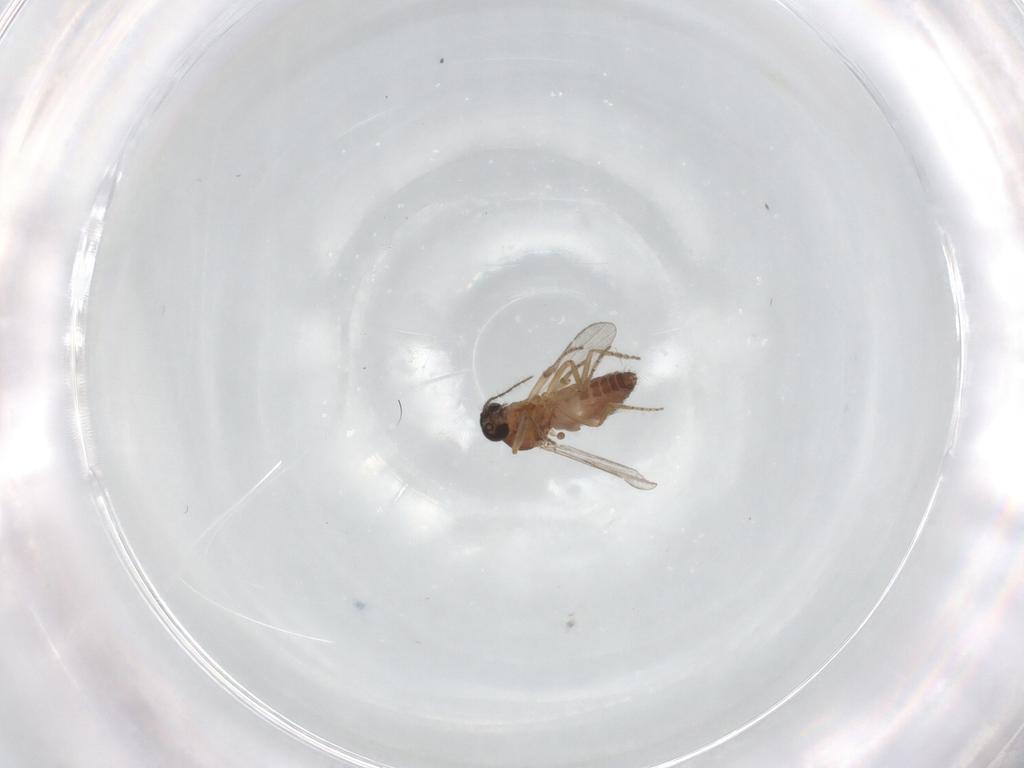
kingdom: Animalia
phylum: Arthropoda
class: Insecta
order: Diptera
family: Ceratopogonidae
